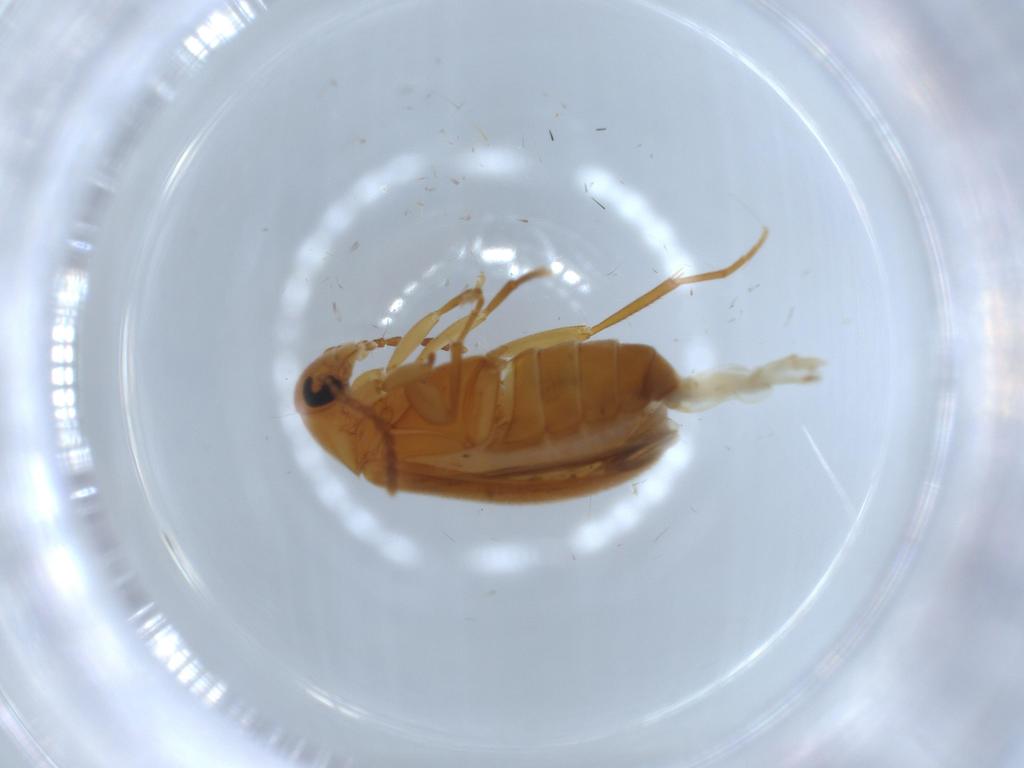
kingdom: Animalia
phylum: Arthropoda
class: Insecta
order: Coleoptera
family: Scraptiidae
